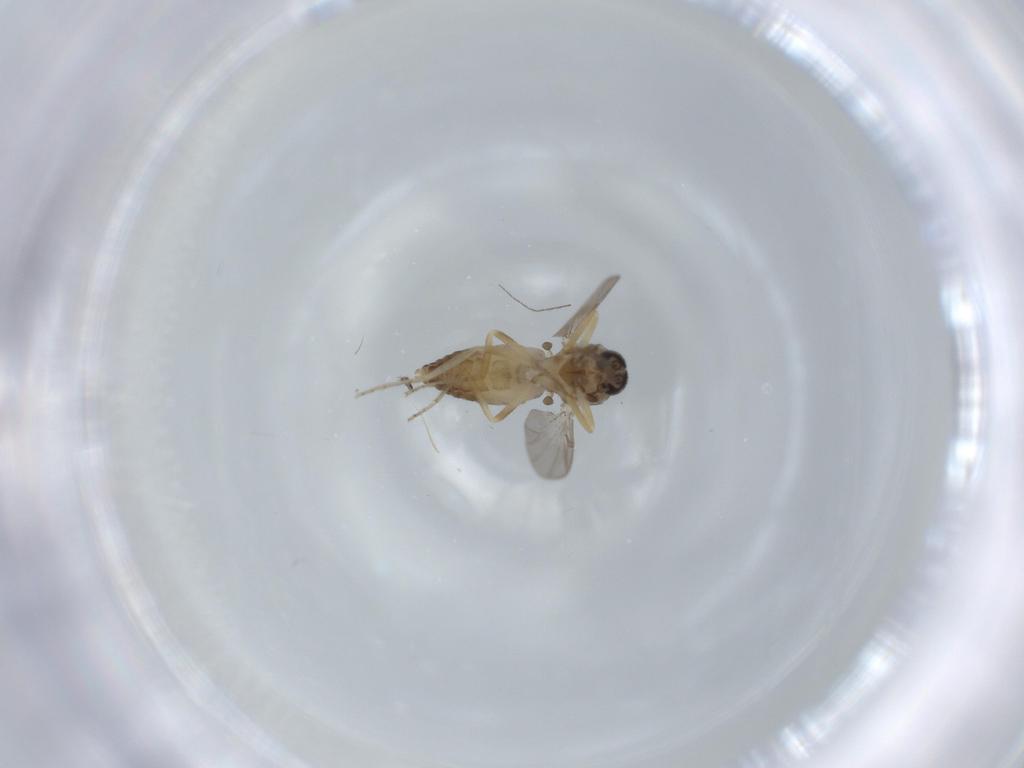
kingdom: Animalia
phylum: Arthropoda
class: Insecta
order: Diptera
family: Ceratopogonidae
